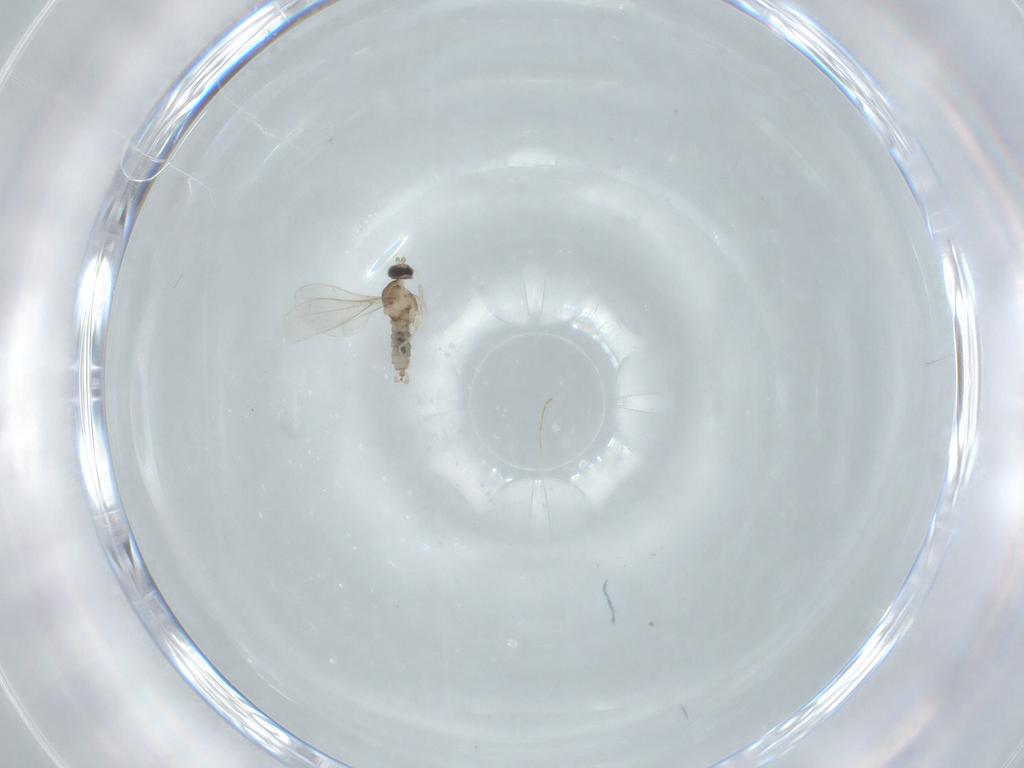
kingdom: Animalia
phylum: Arthropoda
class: Insecta
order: Diptera
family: Cecidomyiidae
